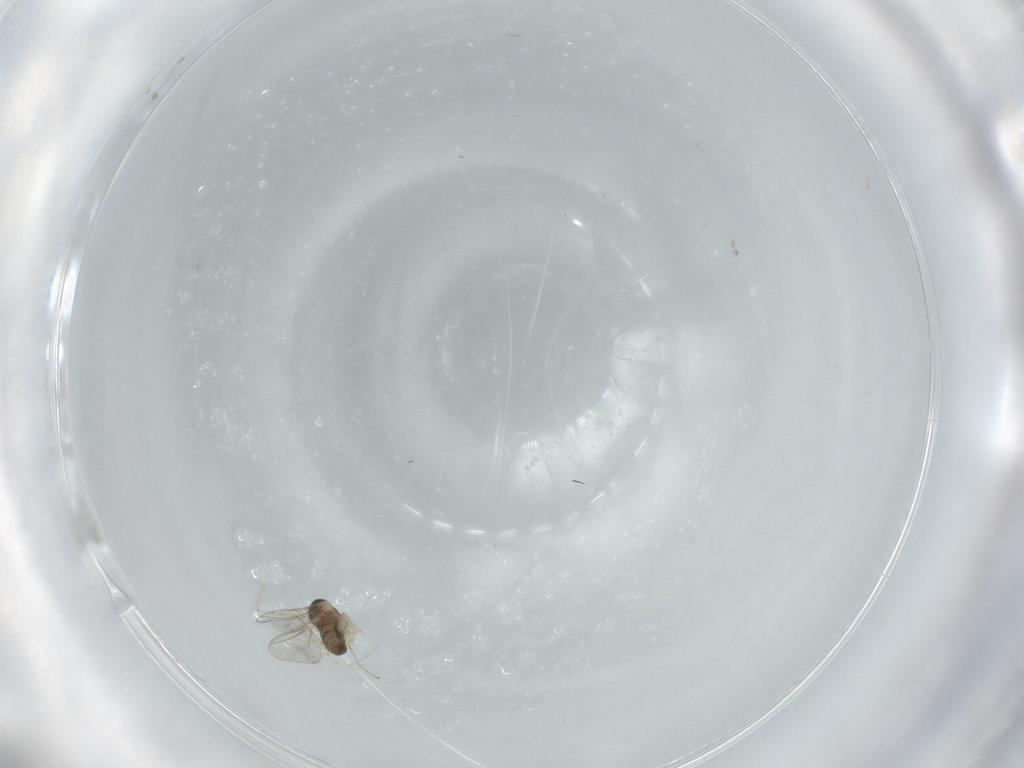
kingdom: Animalia
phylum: Arthropoda
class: Insecta
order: Diptera
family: Cecidomyiidae
